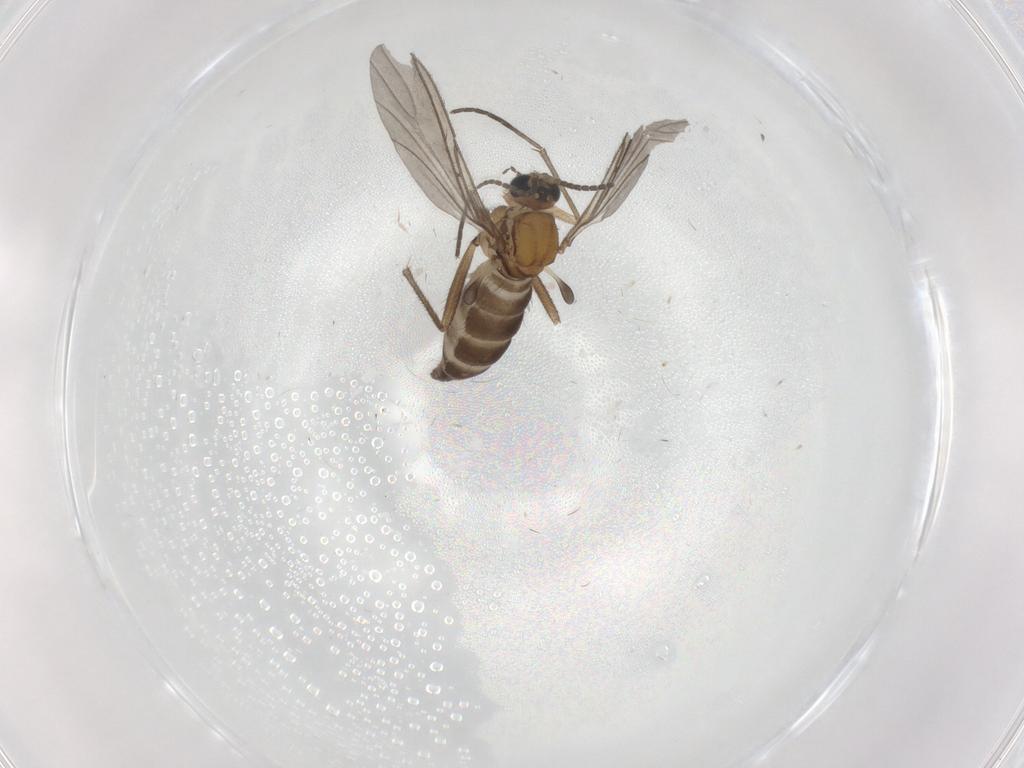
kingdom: Animalia
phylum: Arthropoda
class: Insecta
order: Diptera
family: Sciaridae
